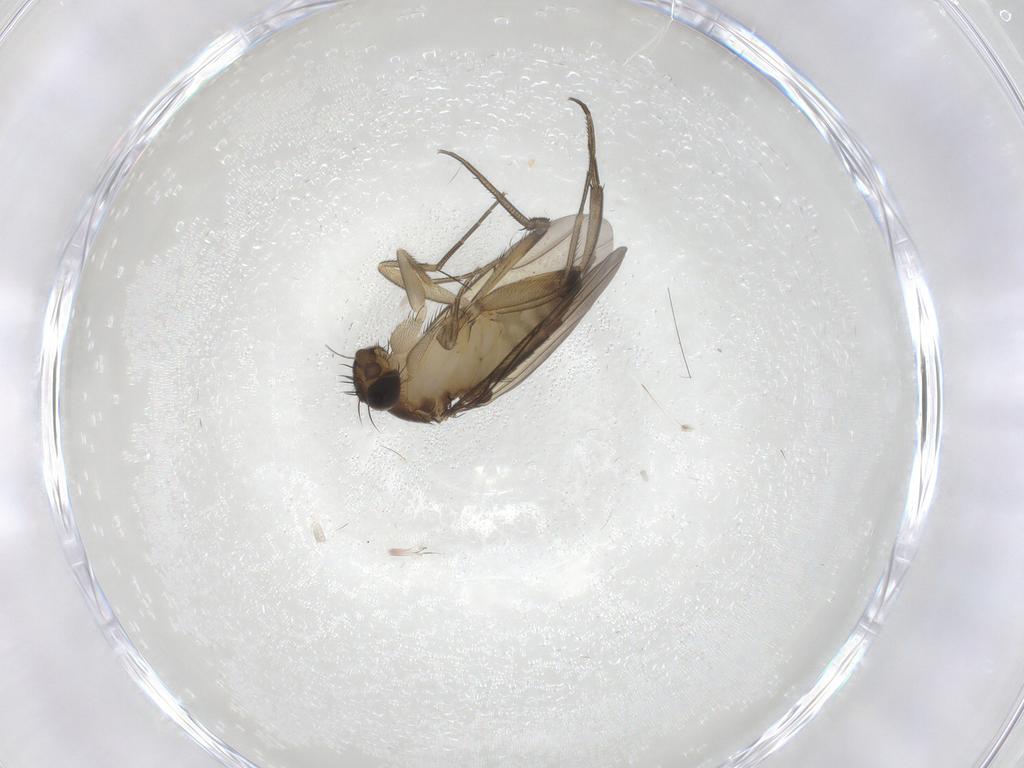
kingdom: Animalia
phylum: Arthropoda
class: Insecta
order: Diptera
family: Phoridae
